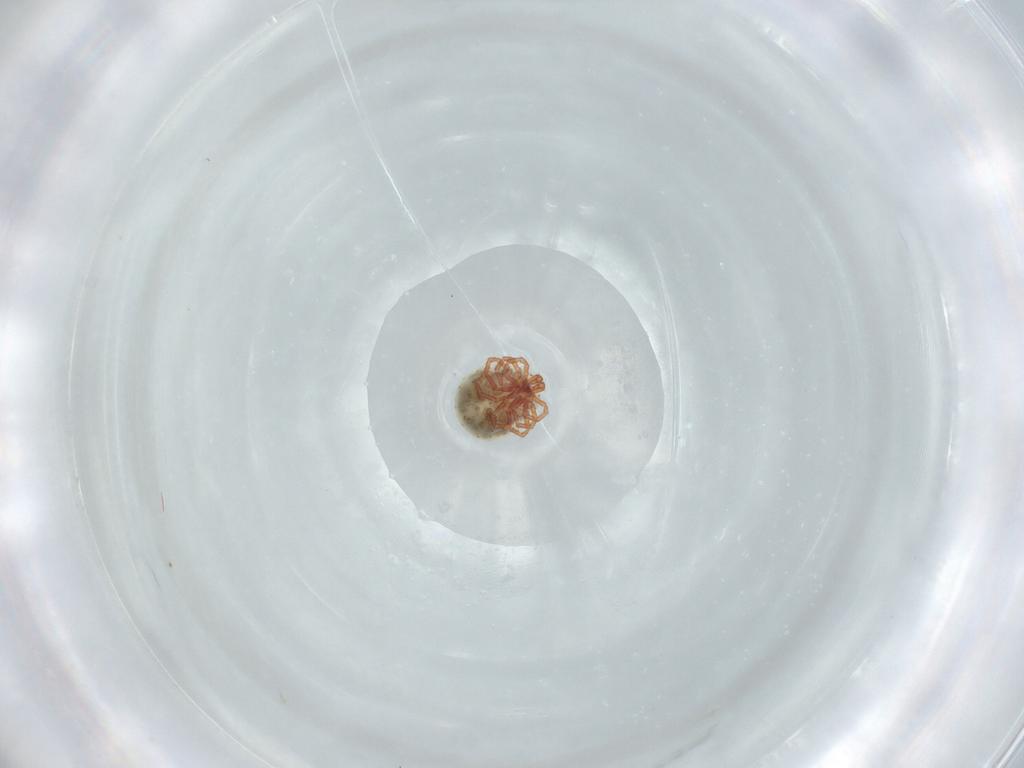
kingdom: Animalia
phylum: Arthropoda
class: Arachnida
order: Trombidiformes
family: Pionidae
